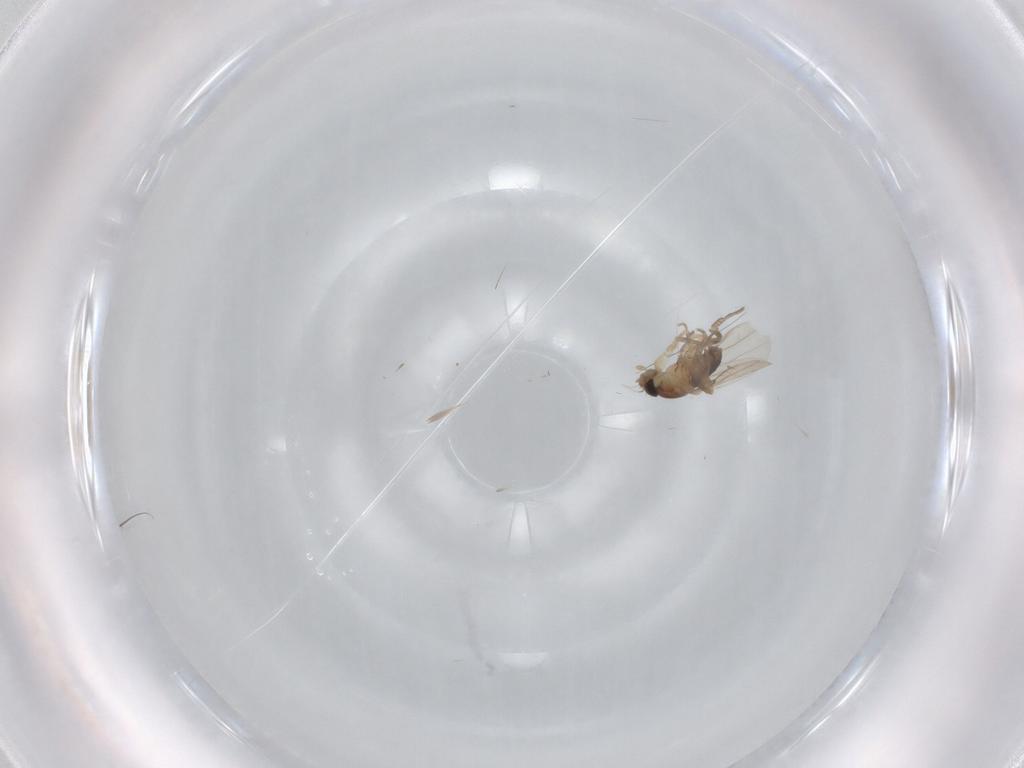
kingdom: Animalia
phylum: Arthropoda
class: Insecta
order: Diptera
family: Phoridae
